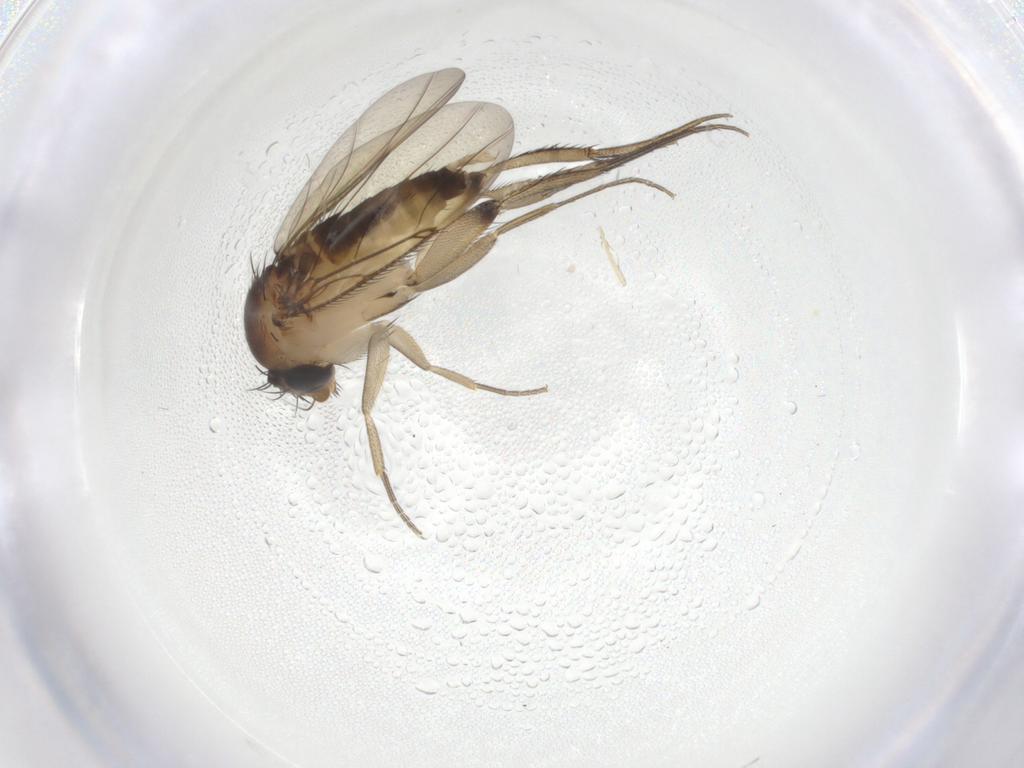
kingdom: Animalia
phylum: Arthropoda
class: Insecta
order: Diptera
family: Phoridae
